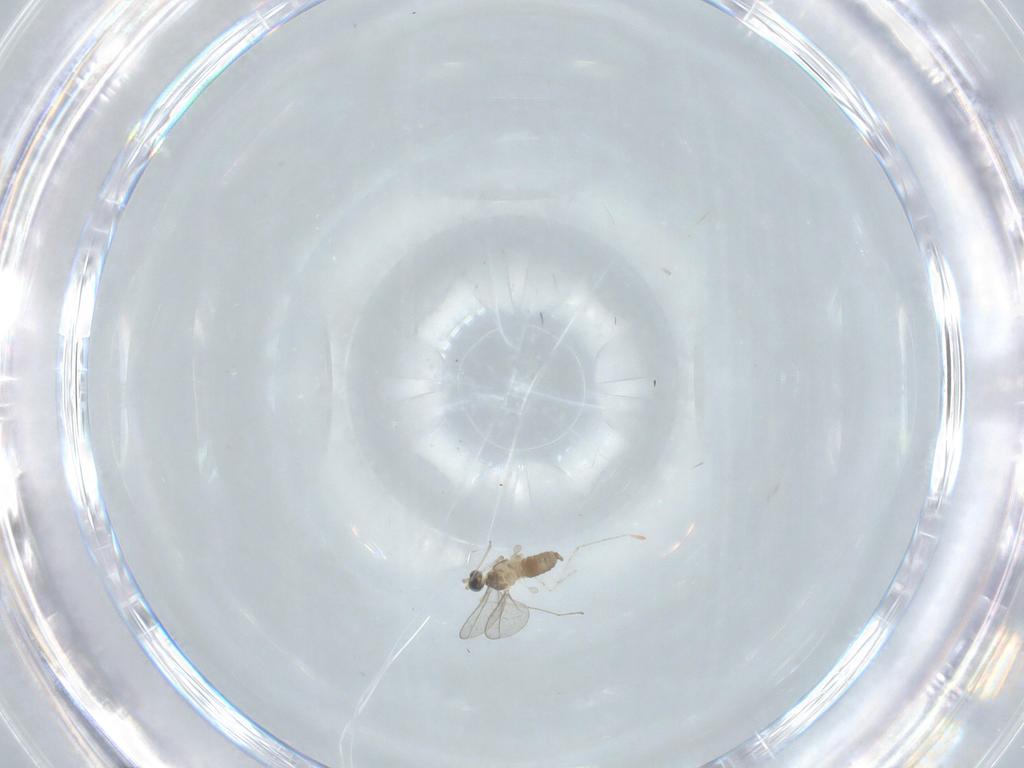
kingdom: Animalia
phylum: Arthropoda
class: Insecta
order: Diptera
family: Cecidomyiidae
